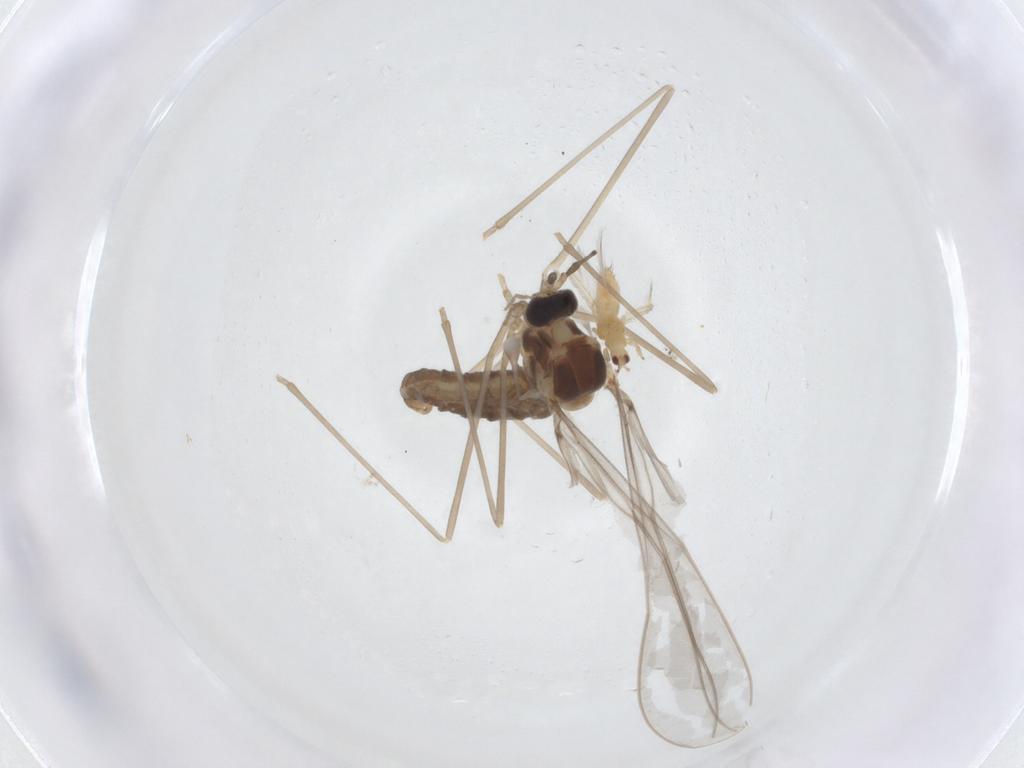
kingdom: Animalia
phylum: Arthropoda
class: Insecta
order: Diptera
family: Cecidomyiidae
